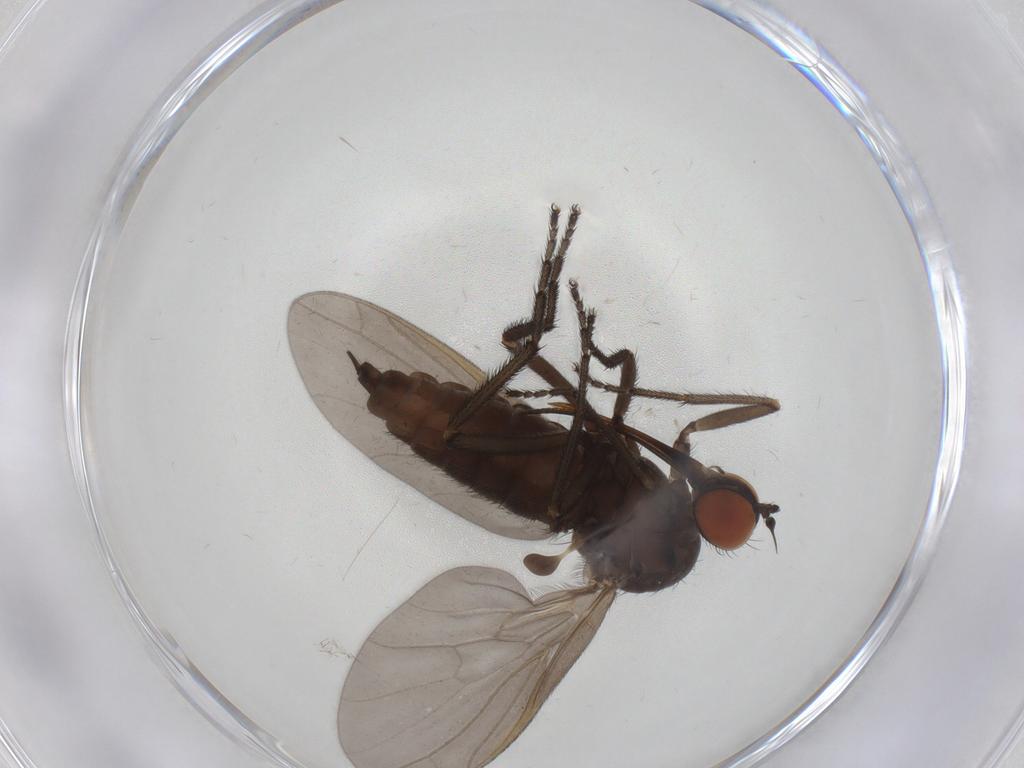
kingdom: Animalia
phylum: Arthropoda
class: Insecta
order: Diptera
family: Empididae
